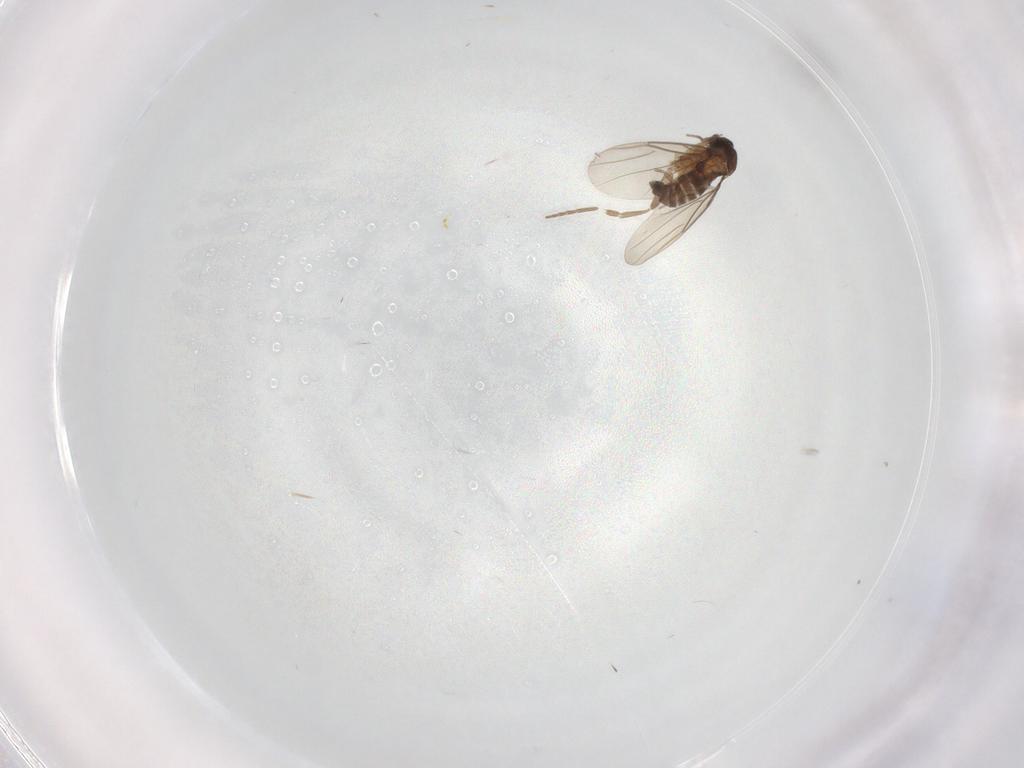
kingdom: Animalia
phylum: Arthropoda
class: Insecta
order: Diptera
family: Phoridae
